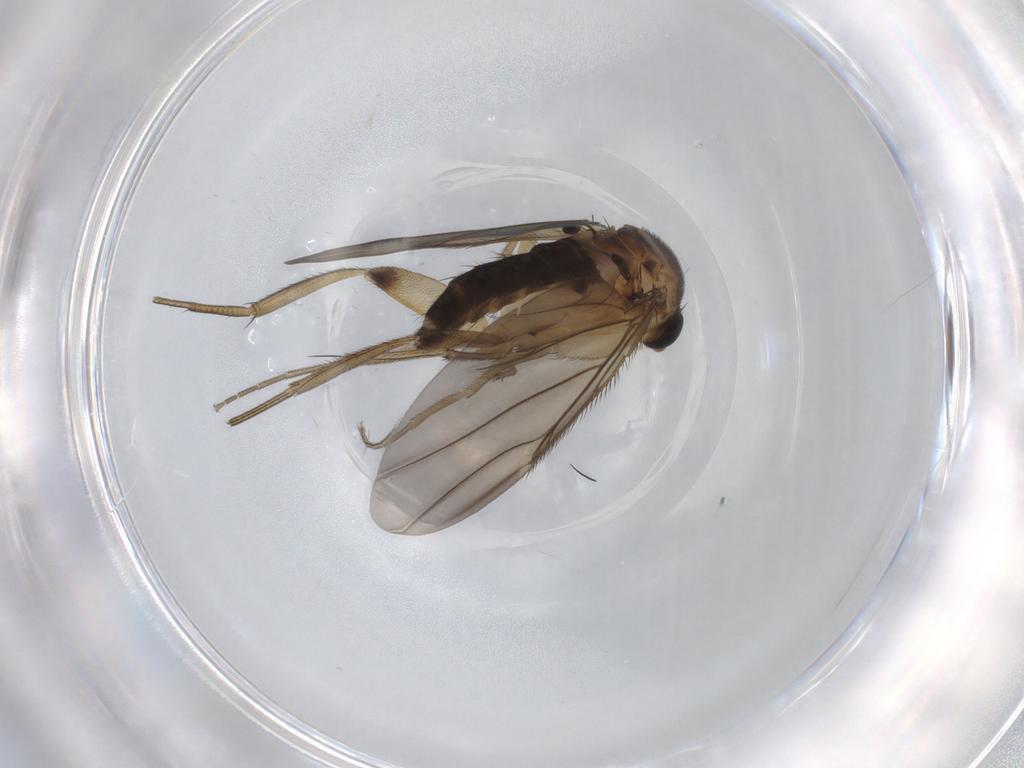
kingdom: Animalia
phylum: Arthropoda
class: Insecta
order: Diptera
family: Phoridae
